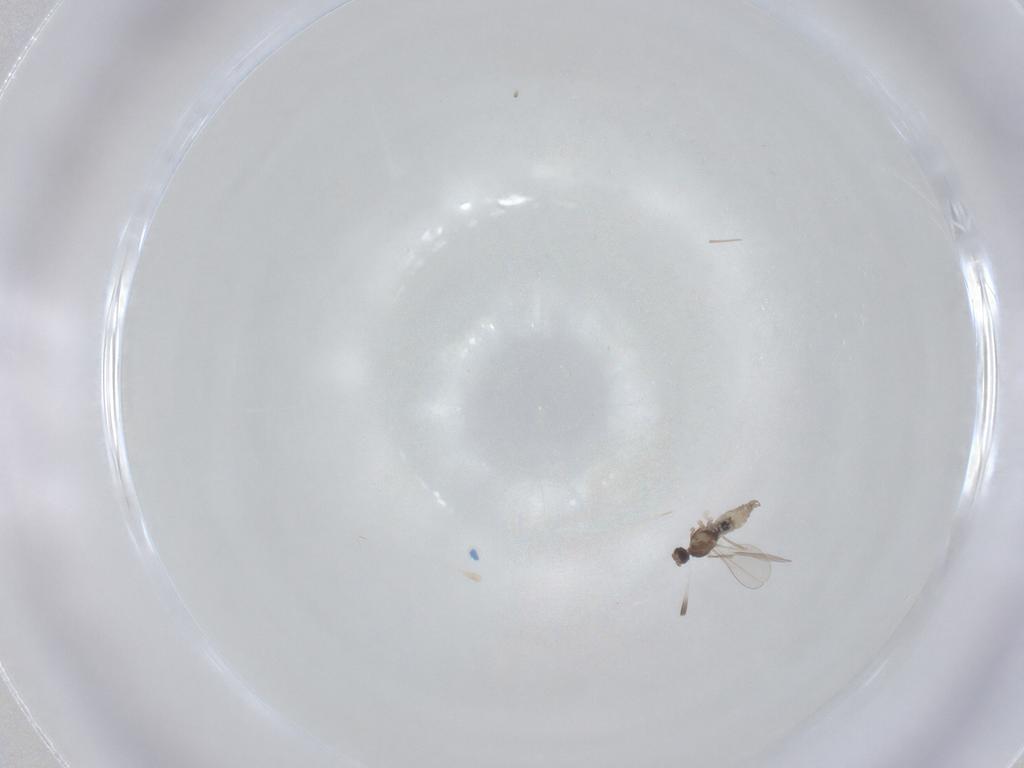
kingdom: Animalia
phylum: Arthropoda
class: Insecta
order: Diptera
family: Cecidomyiidae
